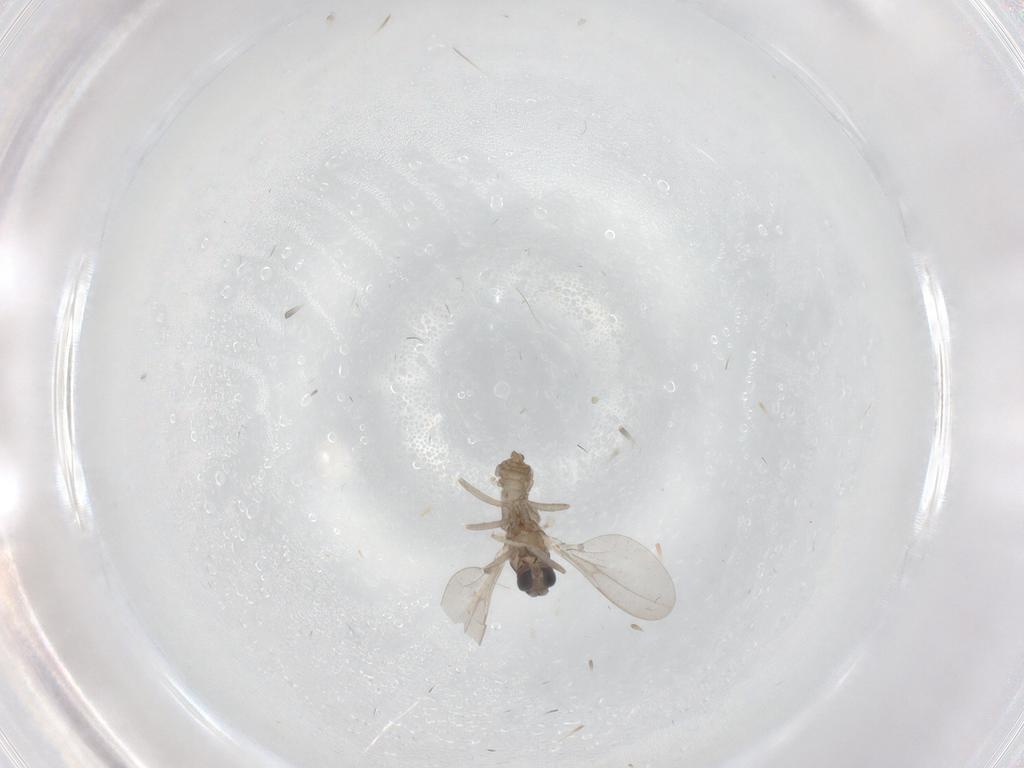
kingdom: Animalia
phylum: Arthropoda
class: Insecta
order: Diptera
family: Cecidomyiidae
